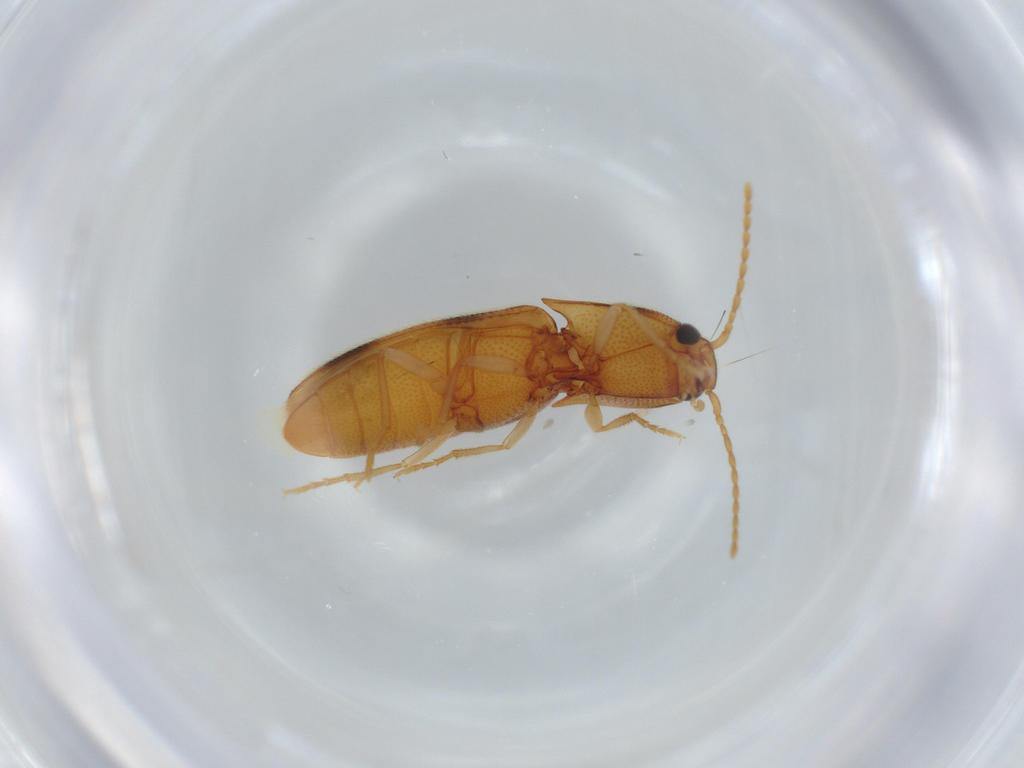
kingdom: Animalia
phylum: Arthropoda
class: Insecta
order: Coleoptera
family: Elateridae
